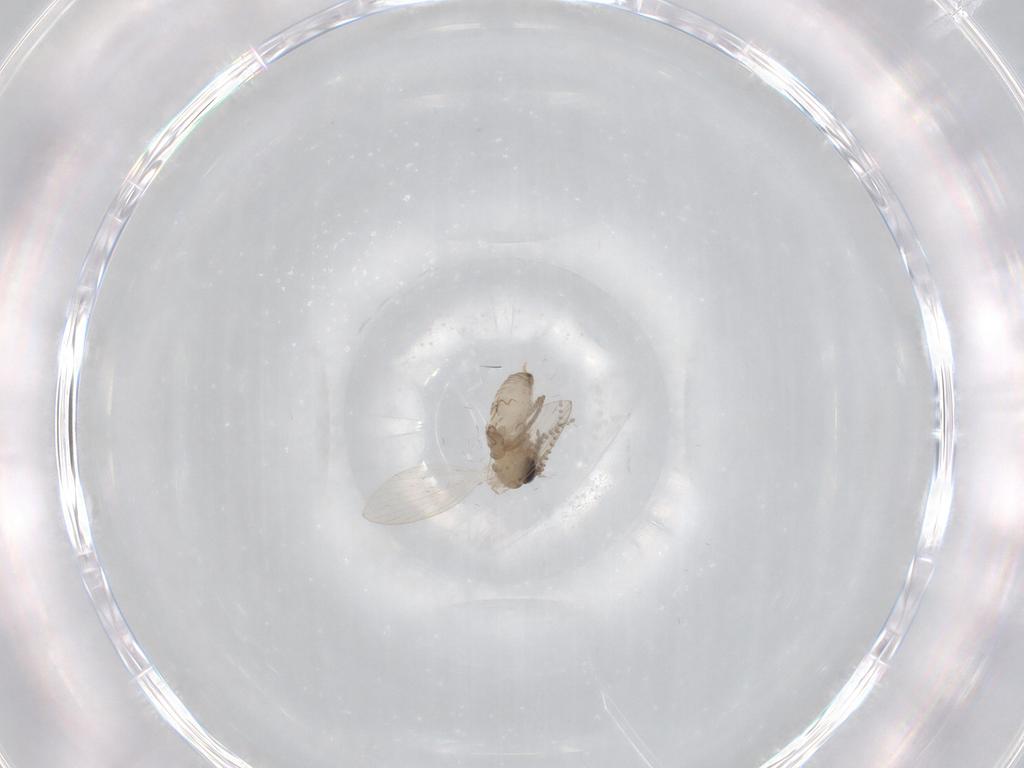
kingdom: Animalia
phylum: Arthropoda
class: Insecta
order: Diptera
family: Psychodidae
